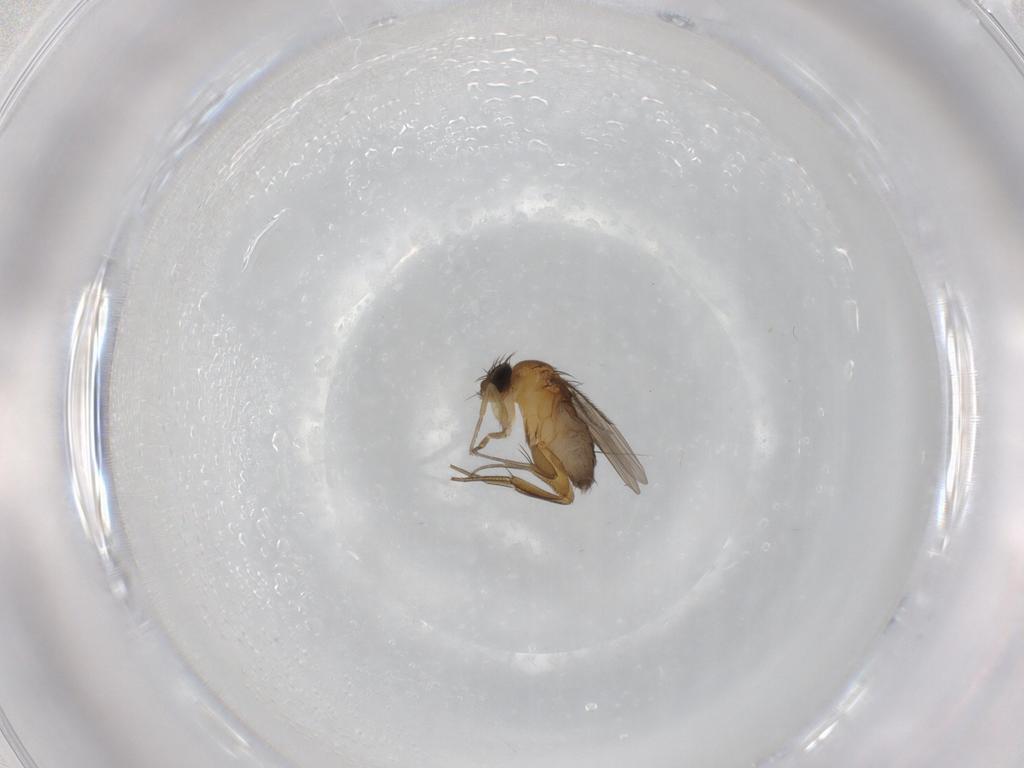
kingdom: Animalia
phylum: Arthropoda
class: Insecta
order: Diptera
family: Phoridae
